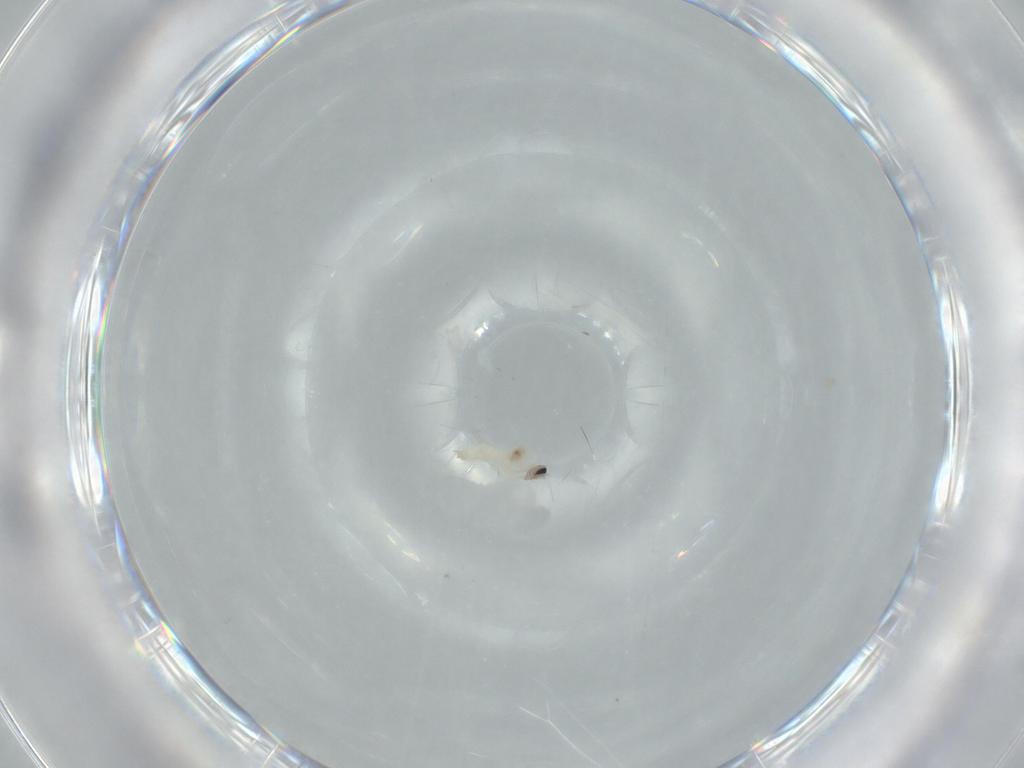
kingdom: Animalia
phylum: Arthropoda
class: Insecta
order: Diptera
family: Cecidomyiidae
